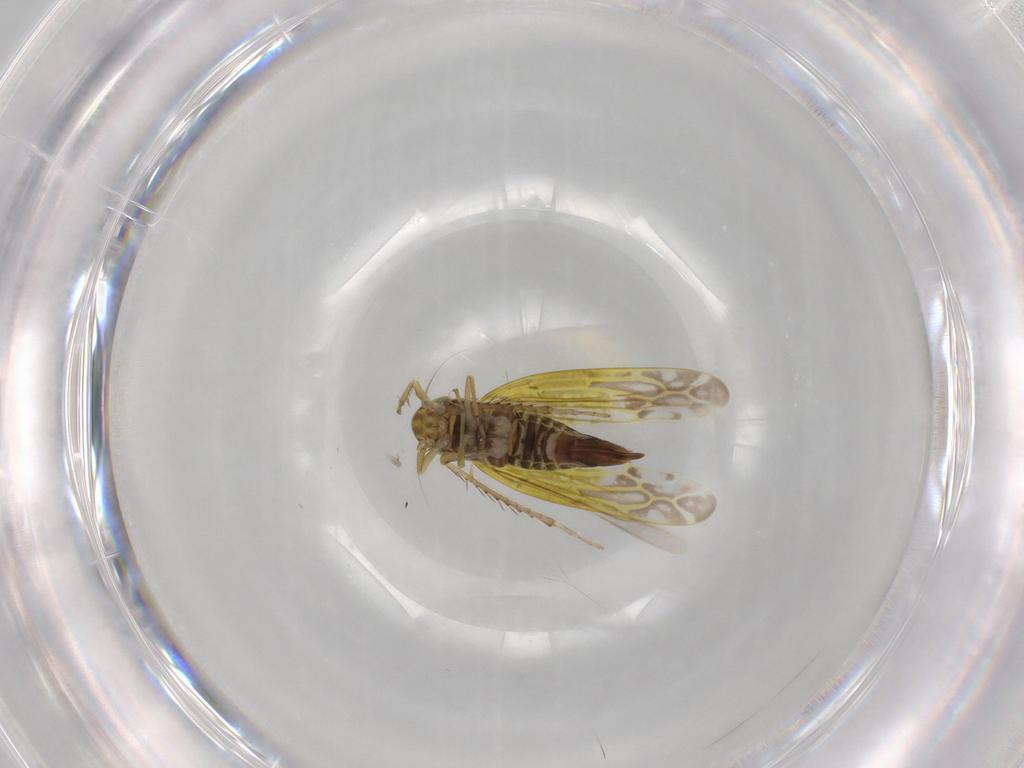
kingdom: Animalia
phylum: Arthropoda
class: Insecta
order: Hemiptera
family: Cicadellidae
